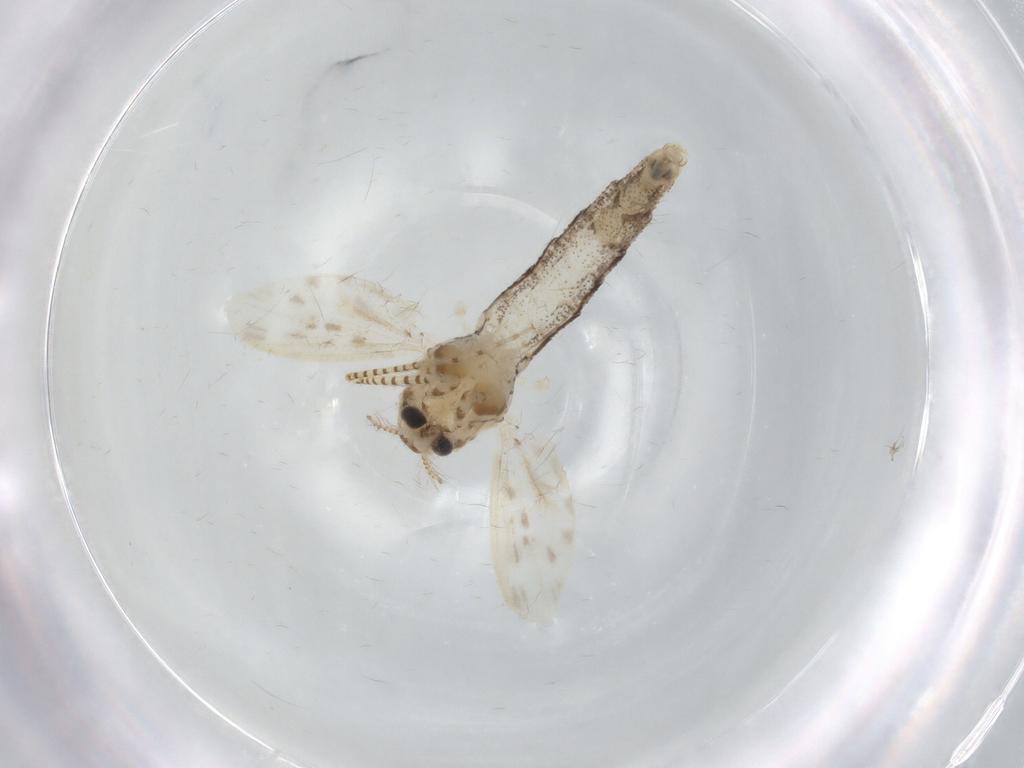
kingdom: Animalia
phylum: Arthropoda
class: Insecta
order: Diptera
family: Chaoboridae
